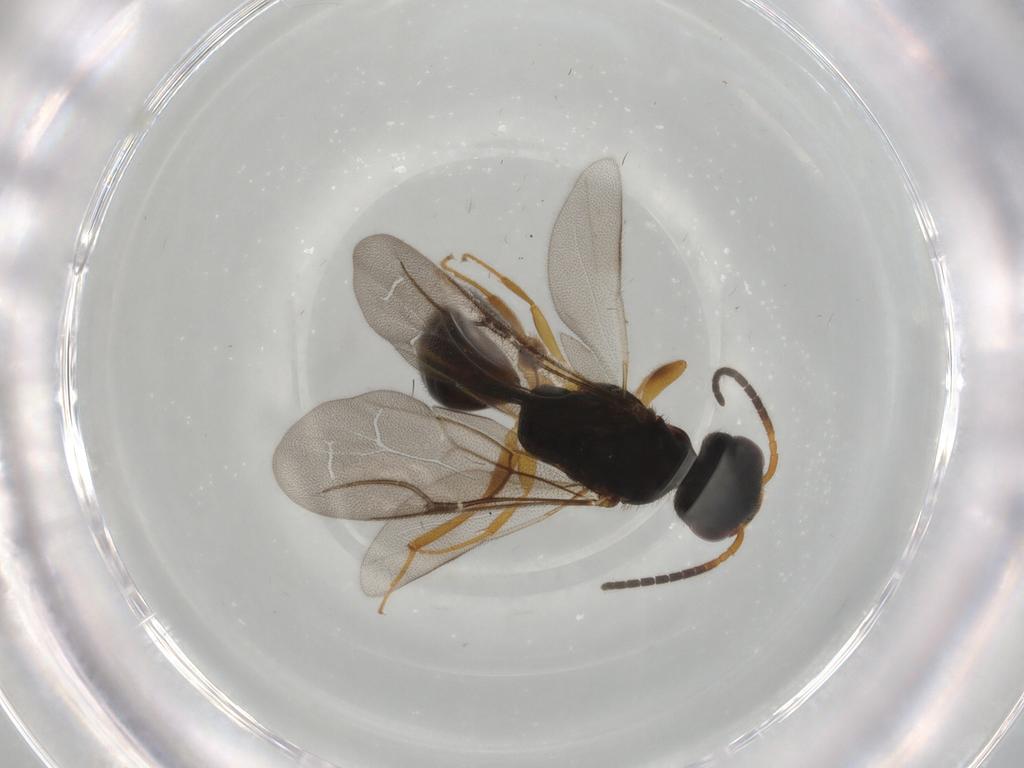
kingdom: Animalia
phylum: Arthropoda
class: Insecta
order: Hymenoptera
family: Bethylidae
